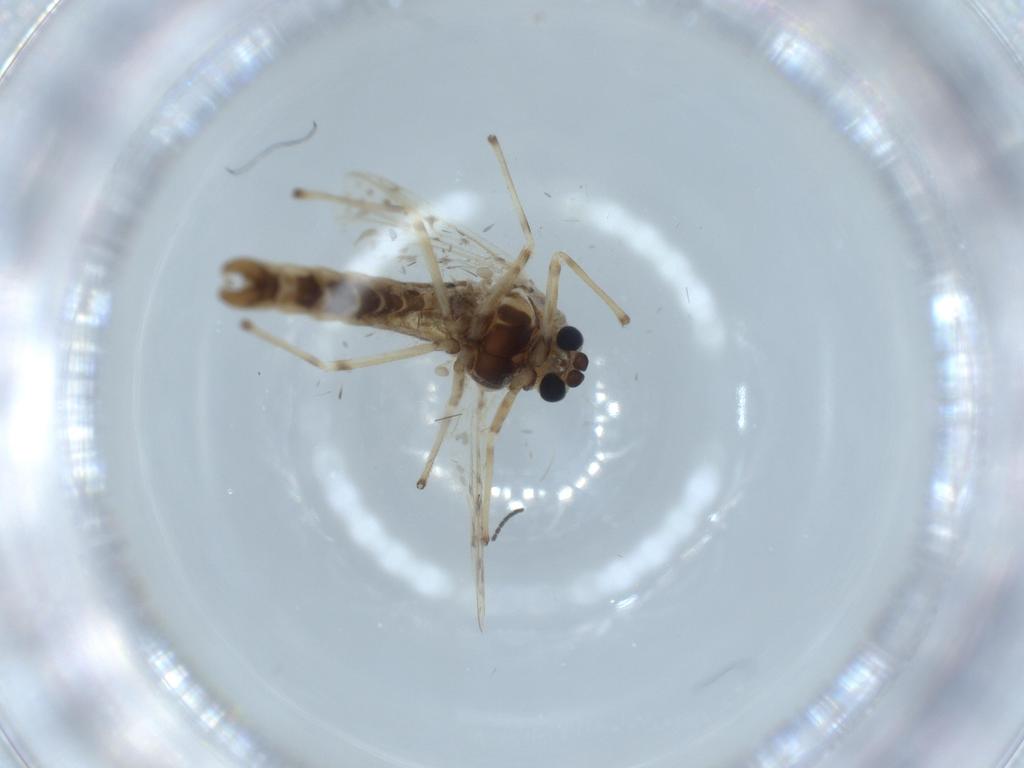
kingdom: Animalia
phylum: Arthropoda
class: Insecta
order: Diptera
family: Chironomidae
